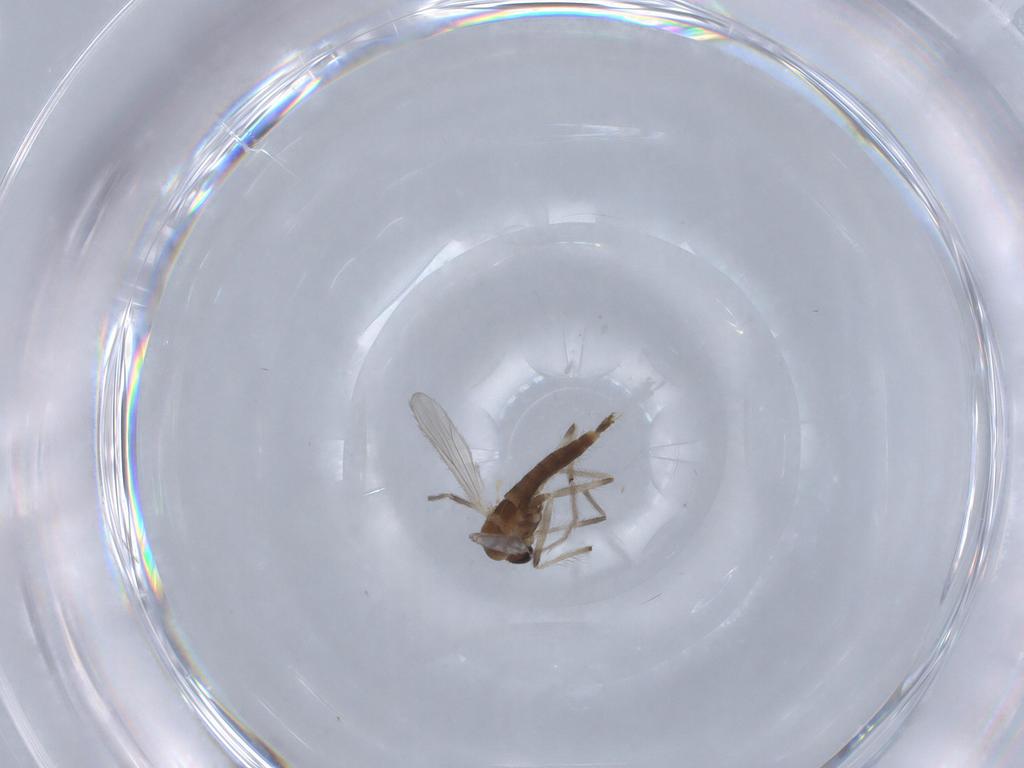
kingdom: Animalia
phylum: Arthropoda
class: Insecta
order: Diptera
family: Chironomidae
